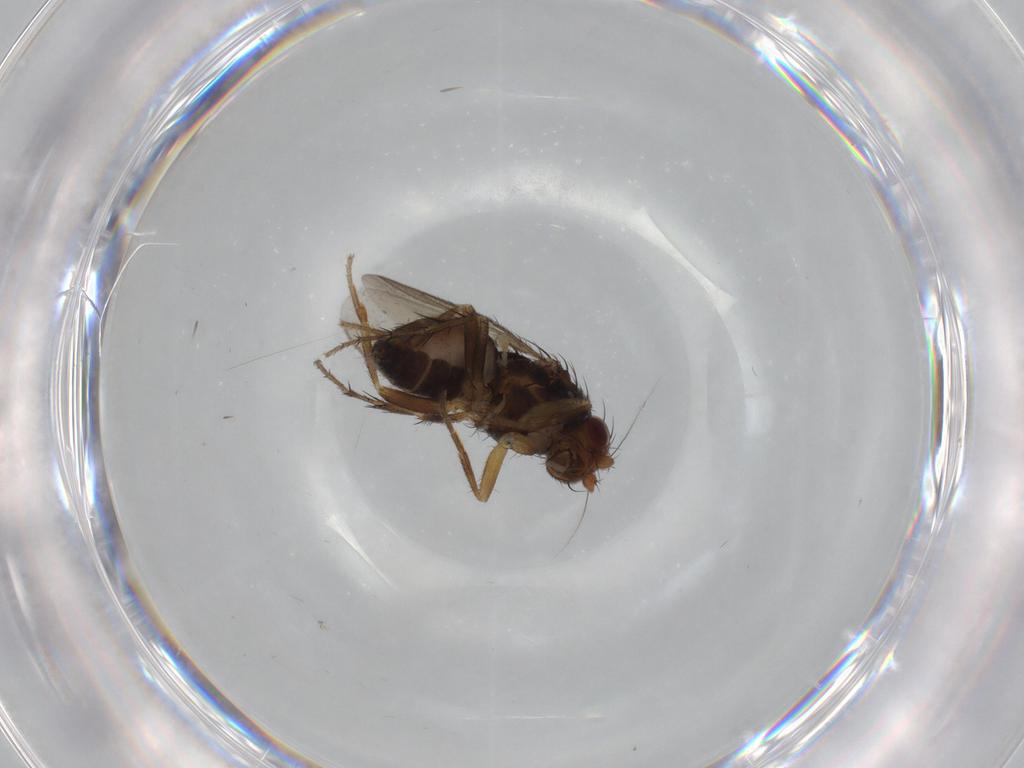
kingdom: Animalia
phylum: Arthropoda
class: Insecta
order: Diptera
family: Sphaeroceridae
